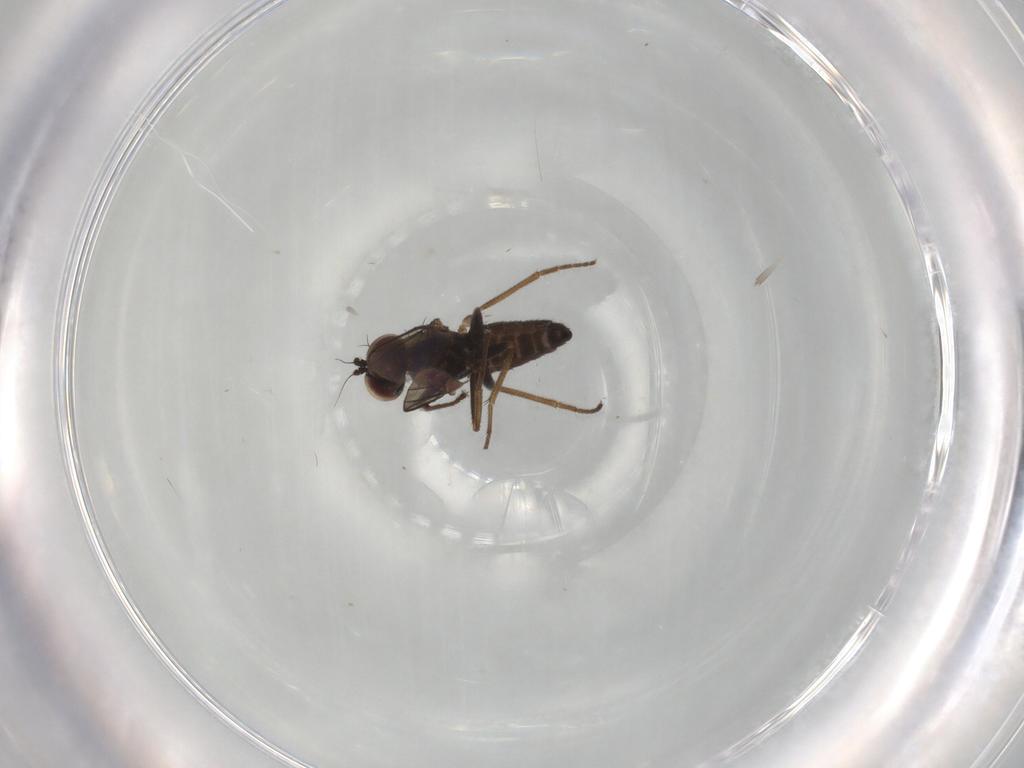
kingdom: Animalia
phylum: Arthropoda
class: Insecta
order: Diptera
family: Dolichopodidae
